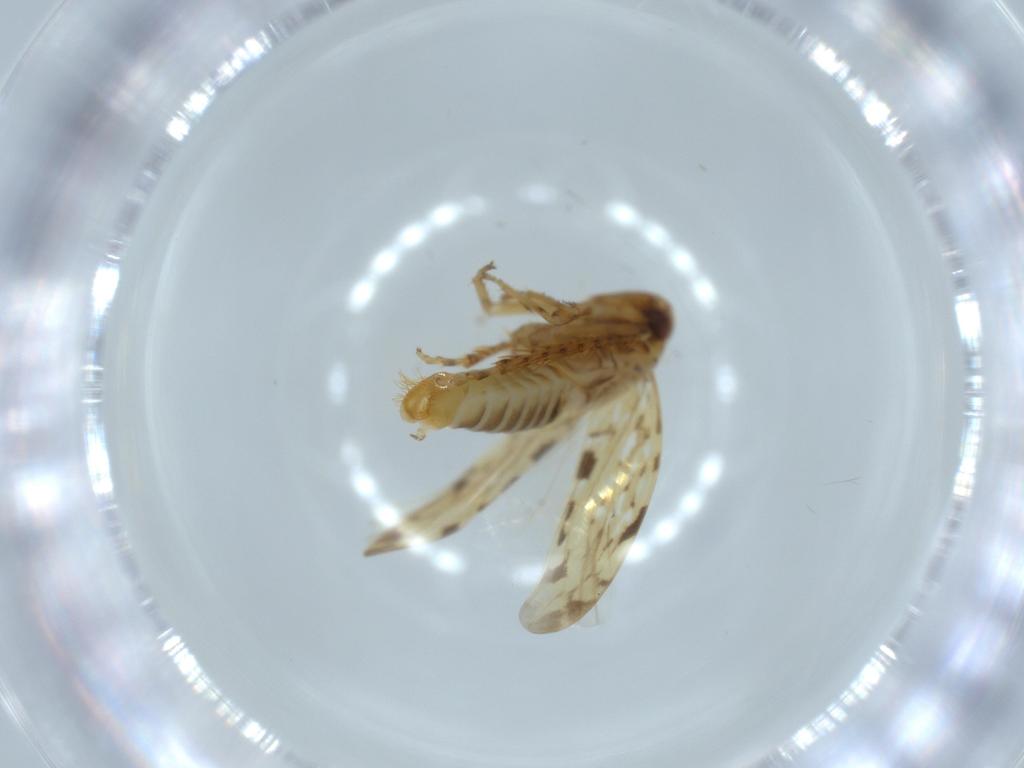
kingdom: Animalia
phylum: Arthropoda
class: Insecta
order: Hemiptera
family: Cicadellidae
